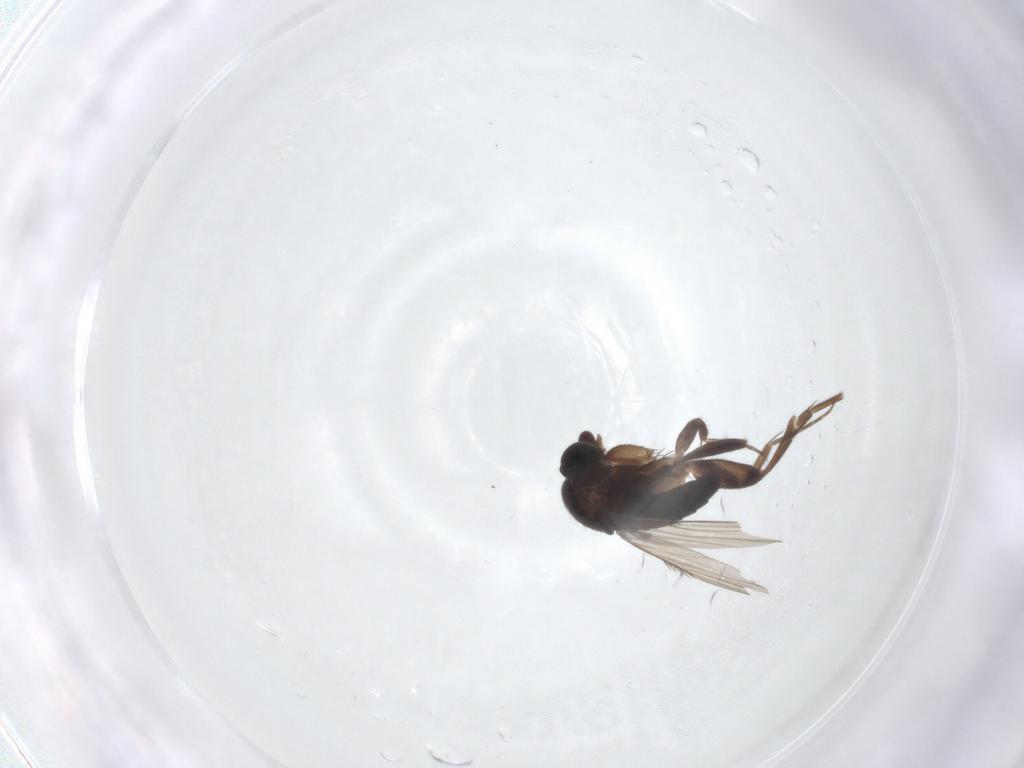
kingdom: Animalia
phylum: Arthropoda
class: Insecta
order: Diptera
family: Phoridae
